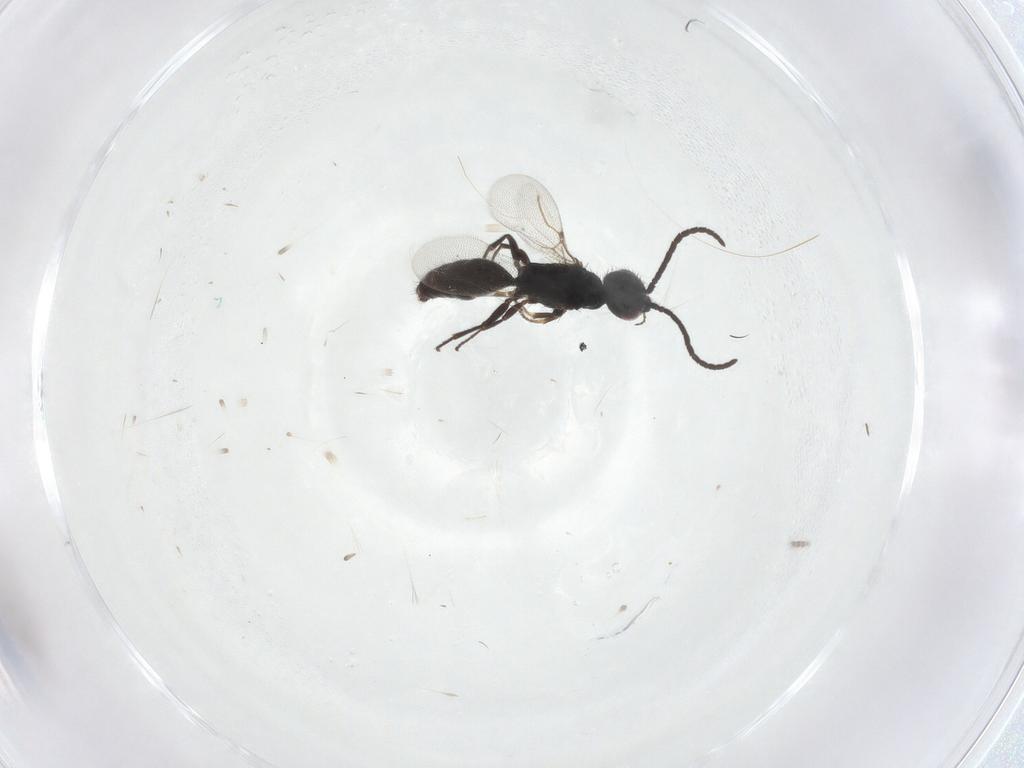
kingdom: Animalia
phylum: Arthropoda
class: Insecta
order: Hymenoptera
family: Bethylidae
